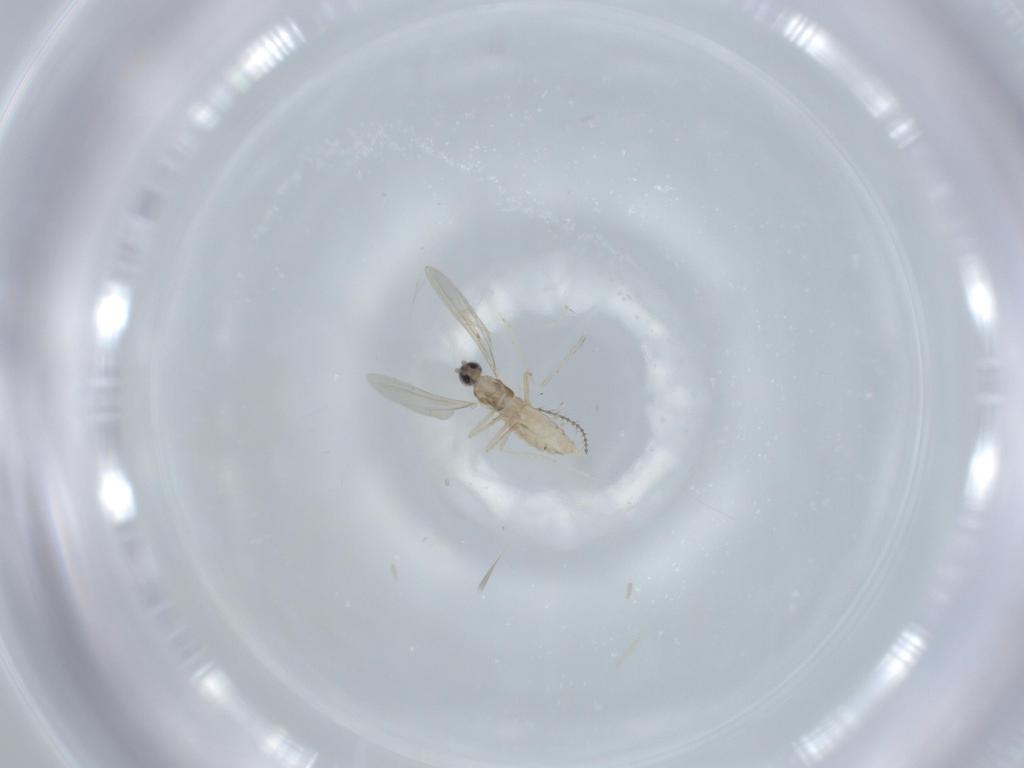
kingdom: Animalia
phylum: Arthropoda
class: Insecta
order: Diptera
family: Cecidomyiidae
